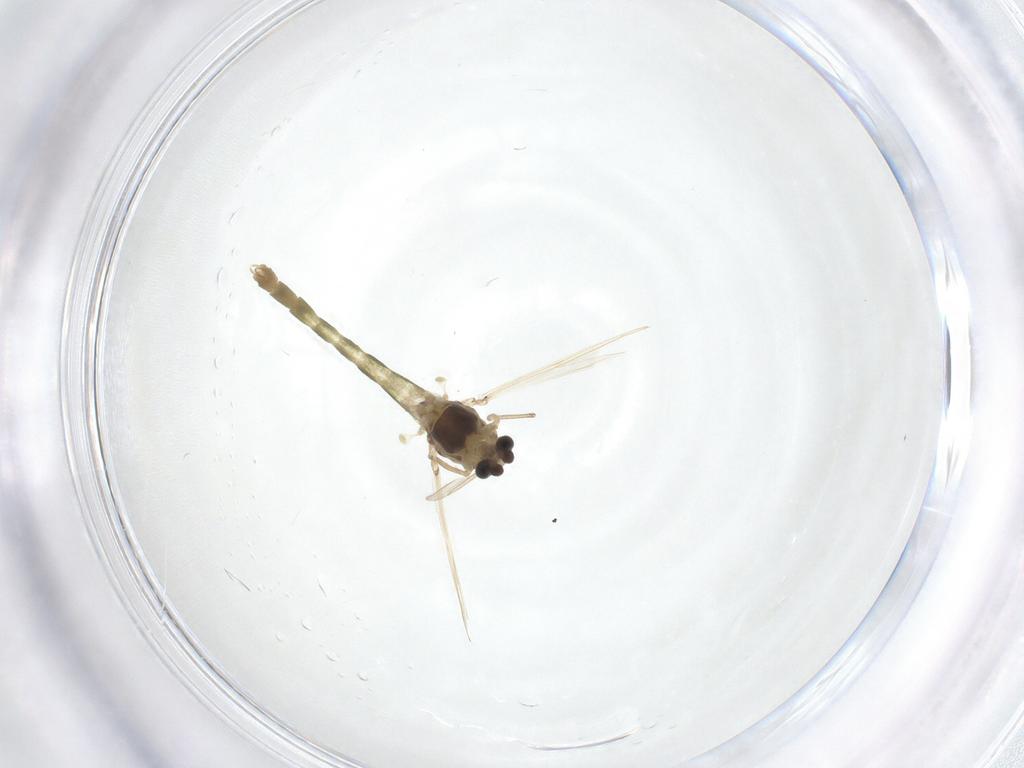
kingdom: Animalia
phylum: Arthropoda
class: Insecta
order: Diptera
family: Chironomidae
